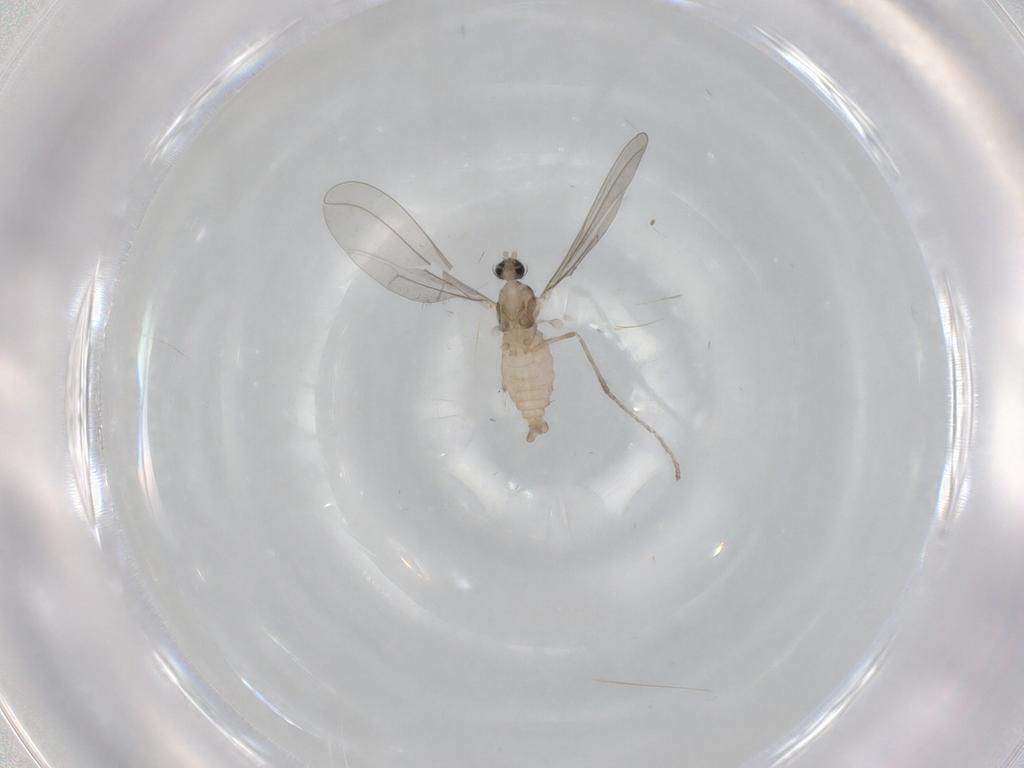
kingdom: Animalia
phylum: Arthropoda
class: Insecta
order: Diptera
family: Cecidomyiidae
